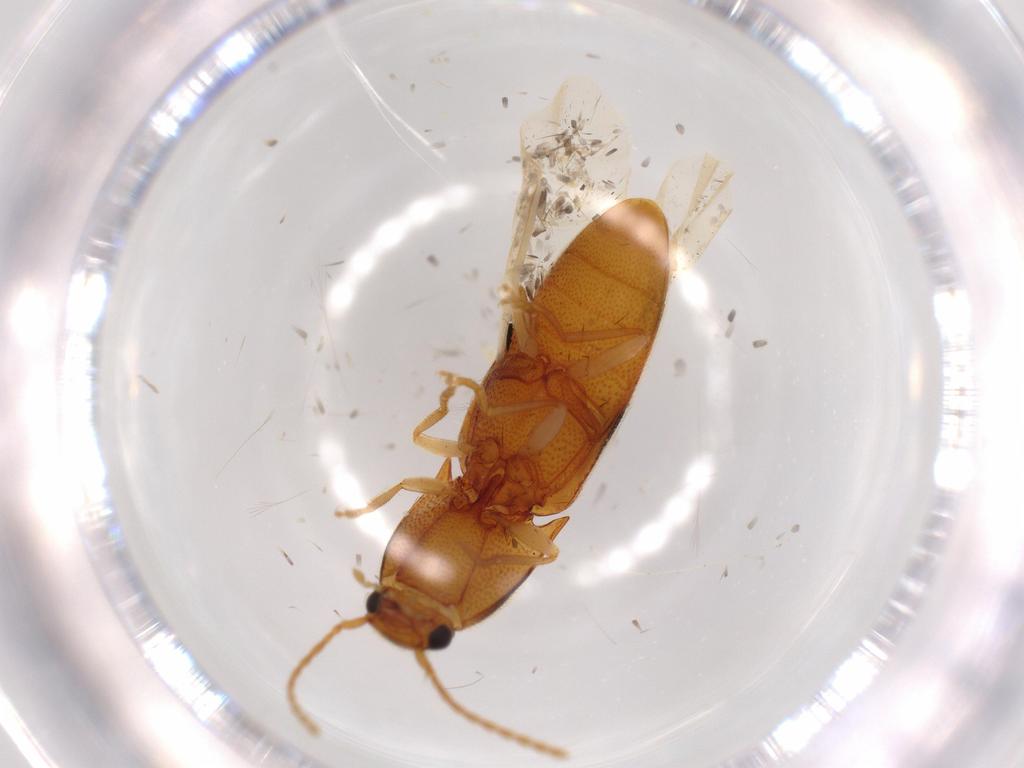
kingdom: Animalia
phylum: Arthropoda
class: Insecta
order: Coleoptera
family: Elateridae
